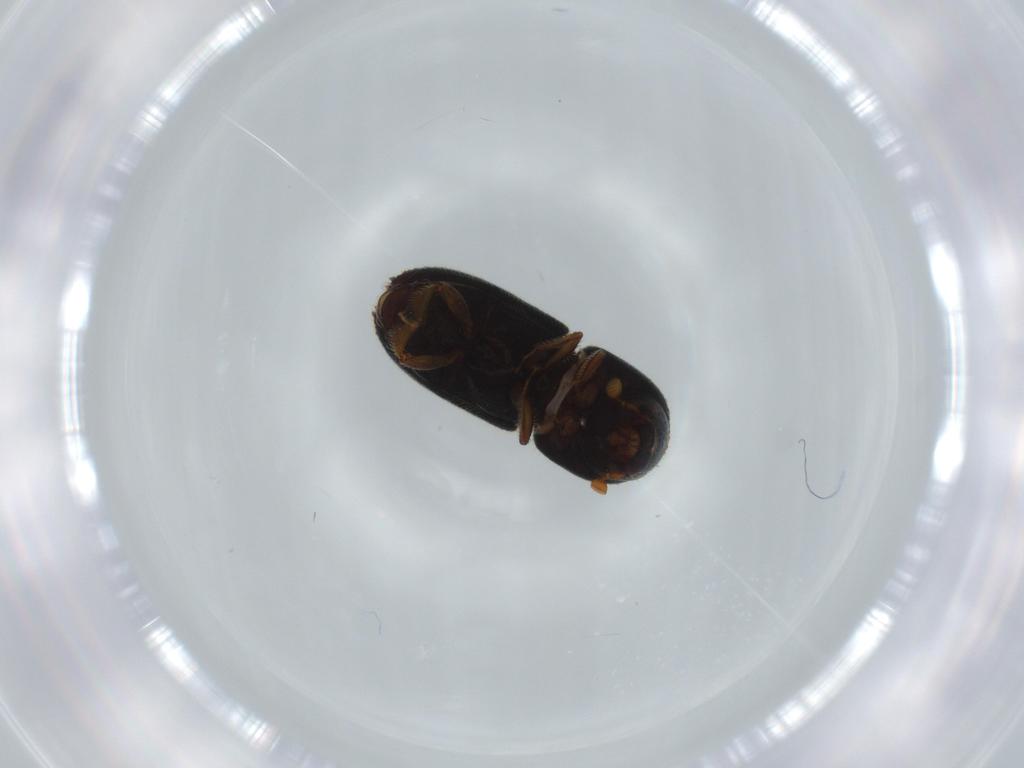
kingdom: Animalia
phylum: Arthropoda
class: Insecta
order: Coleoptera
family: Curculionidae
